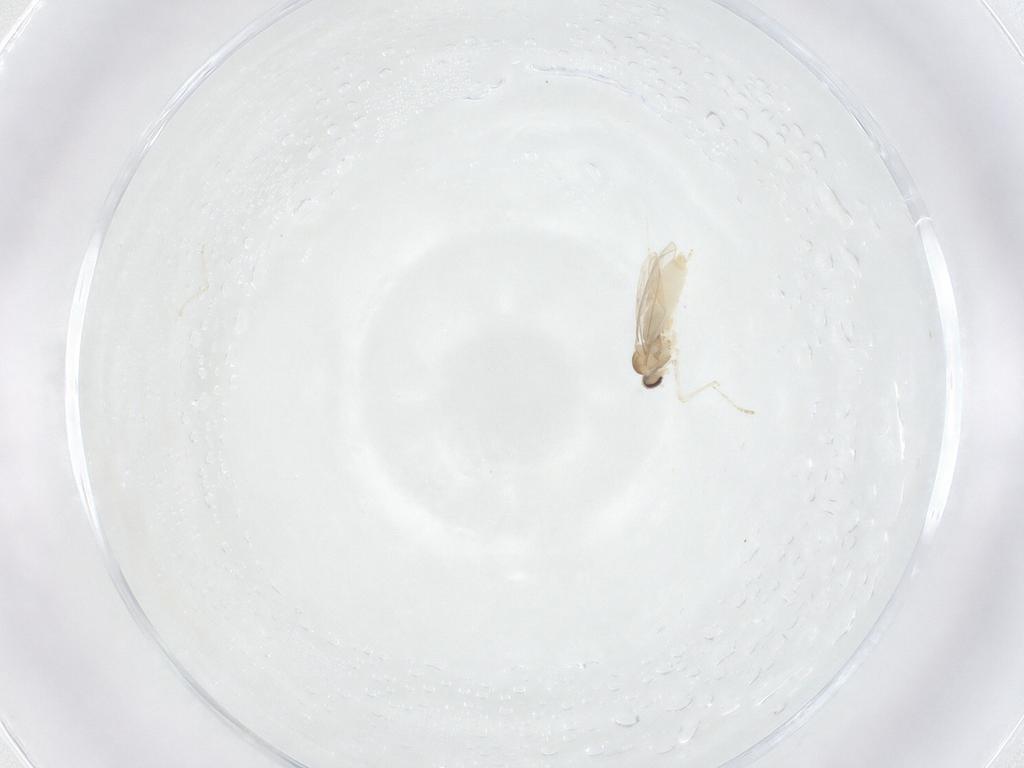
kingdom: Animalia
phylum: Arthropoda
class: Insecta
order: Diptera
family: Cecidomyiidae
